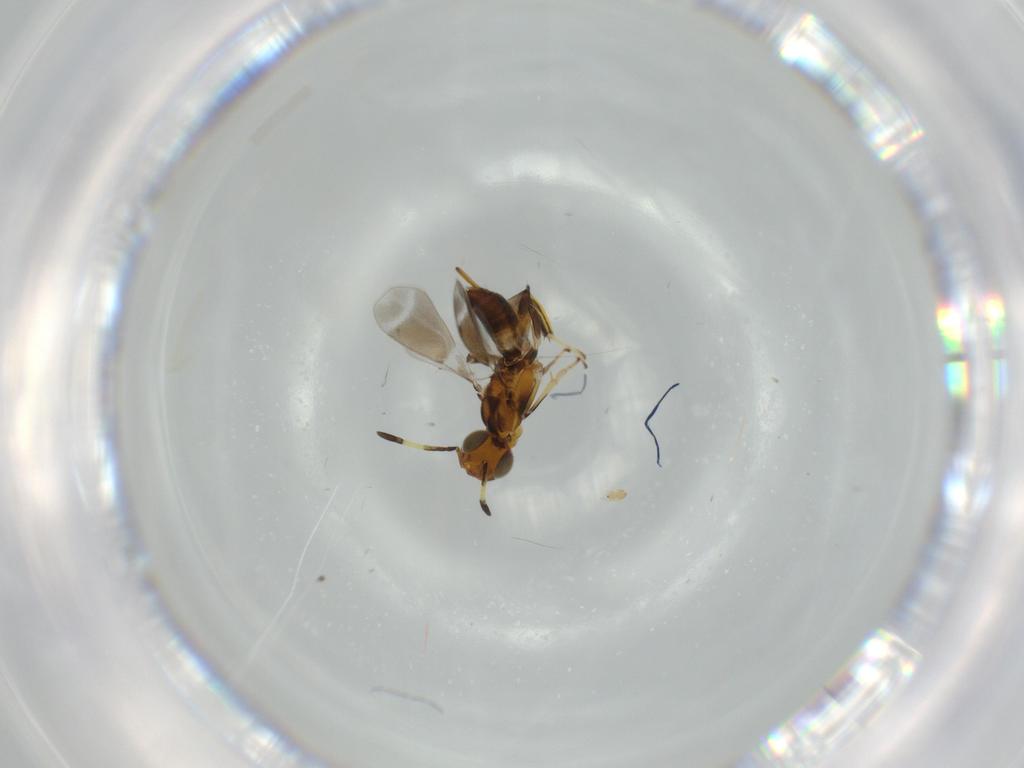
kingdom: Animalia
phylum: Arthropoda
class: Insecta
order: Hymenoptera
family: Eupelmidae
